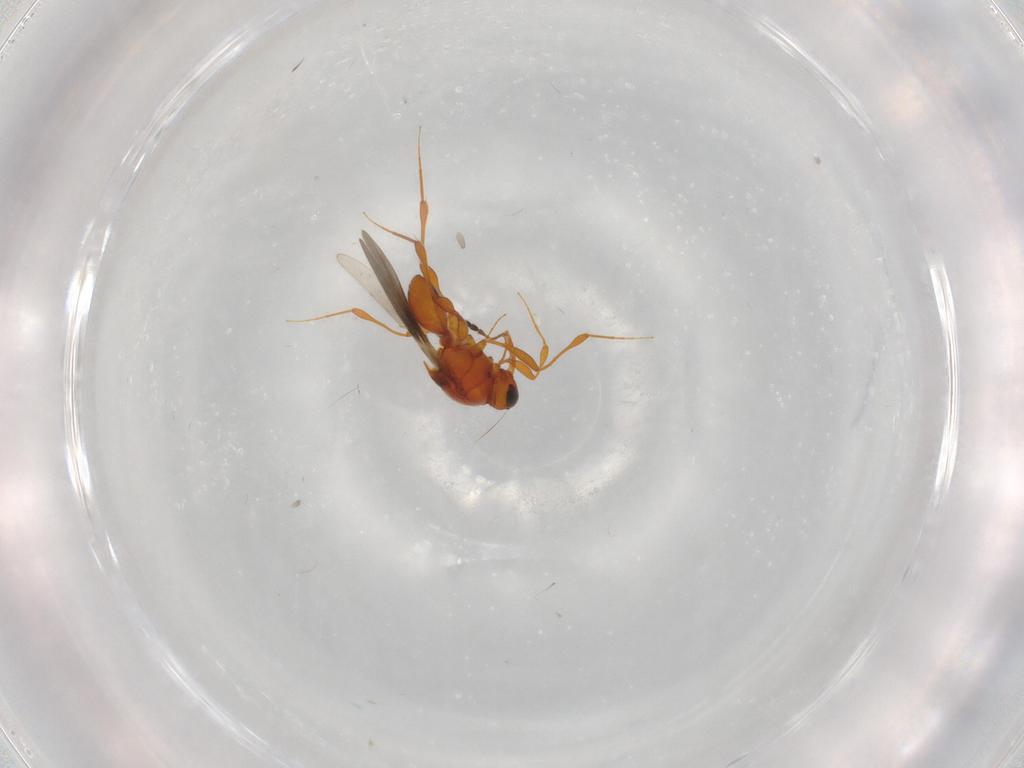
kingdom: Animalia
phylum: Arthropoda
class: Insecta
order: Hymenoptera
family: Platygastridae
